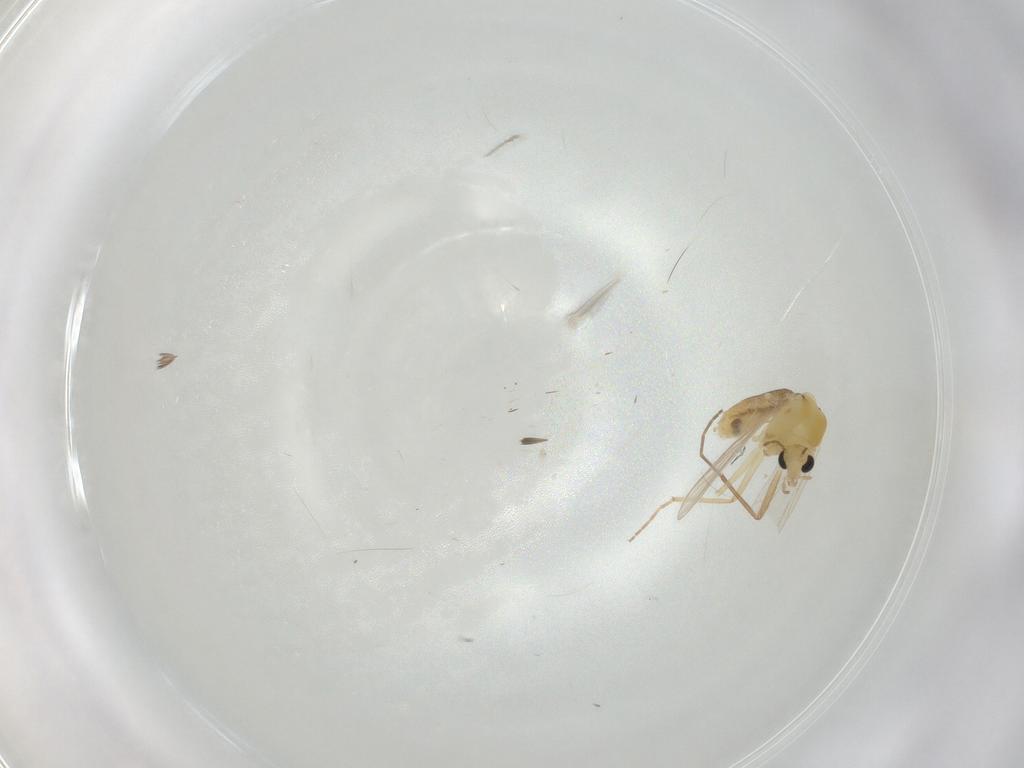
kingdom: Animalia
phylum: Arthropoda
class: Insecta
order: Diptera
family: Chironomidae
